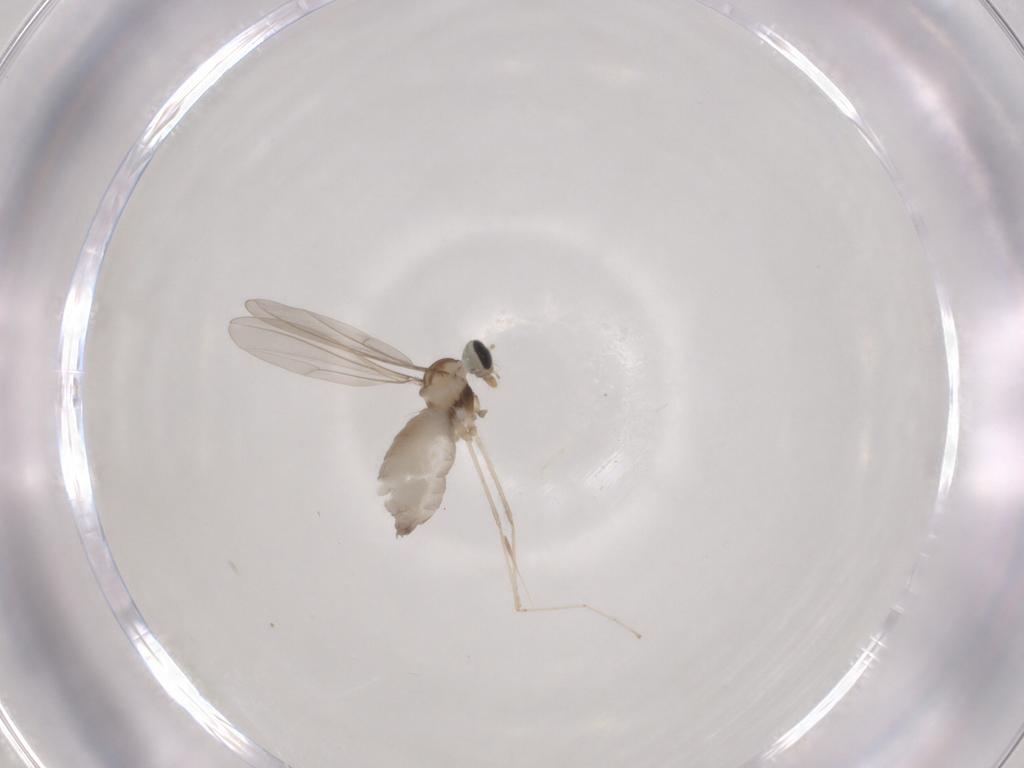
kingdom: Animalia
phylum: Arthropoda
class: Insecta
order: Diptera
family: Cecidomyiidae
